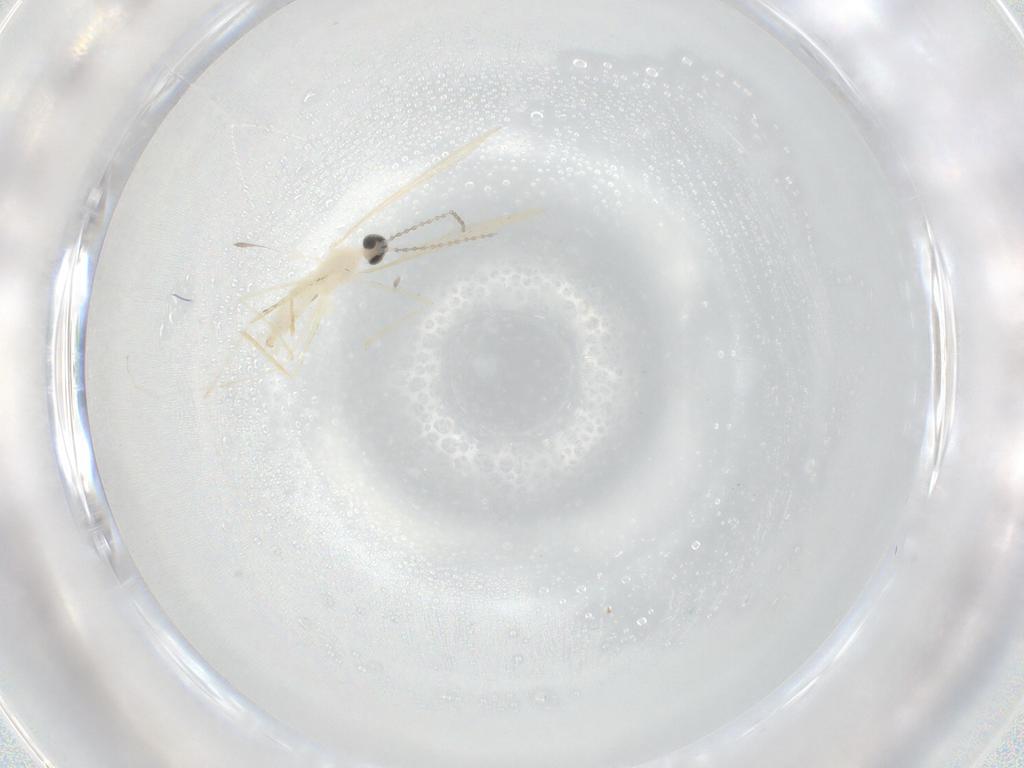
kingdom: Animalia
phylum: Arthropoda
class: Insecta
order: Diptera
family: Cecidomyiidae
